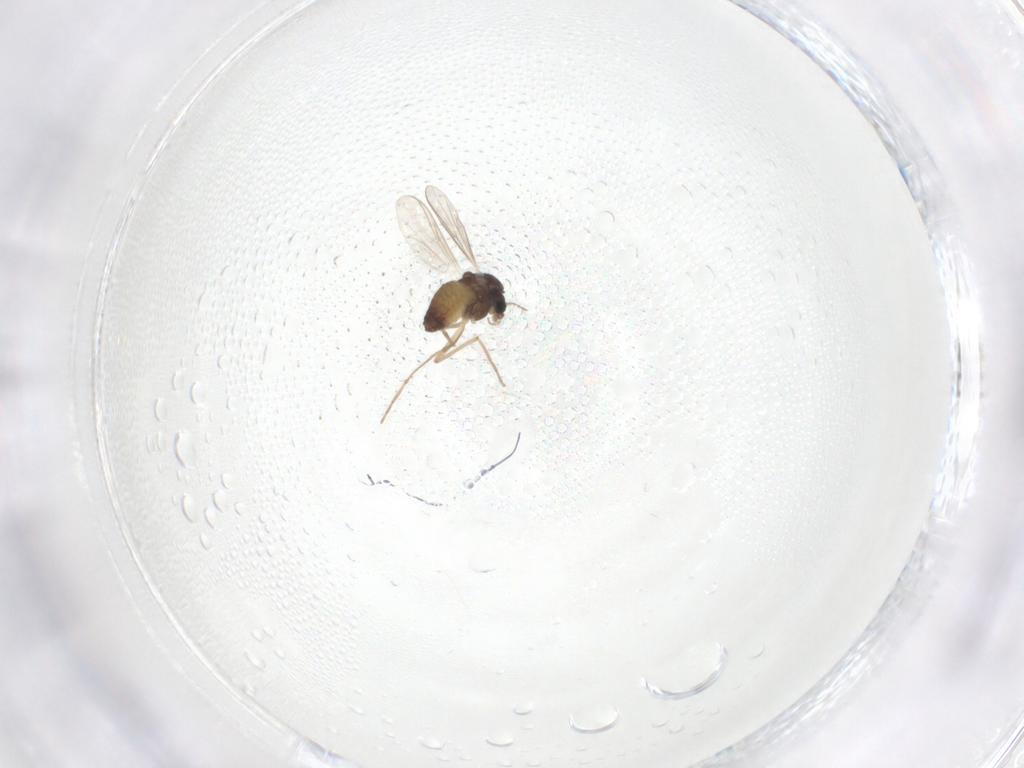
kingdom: Animalia
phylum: Arthropoda
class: Insecta
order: Diptera
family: Chironomidae
